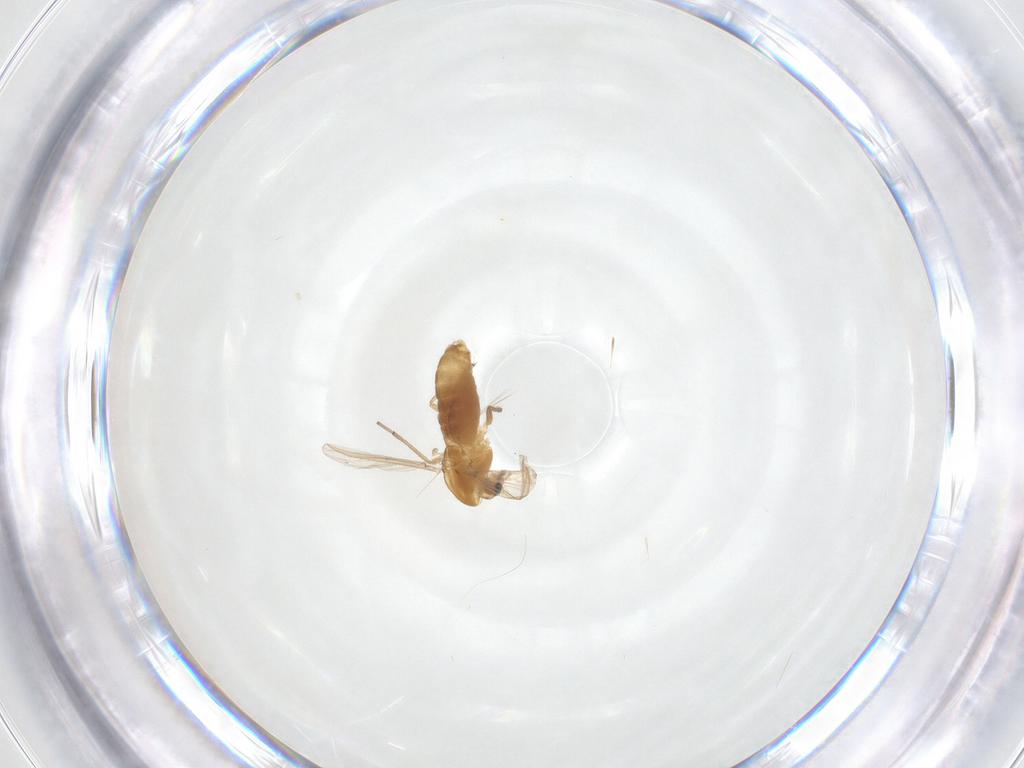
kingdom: Animalia
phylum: Arthropoda
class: Insecta
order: Diptera
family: Chironomidae
